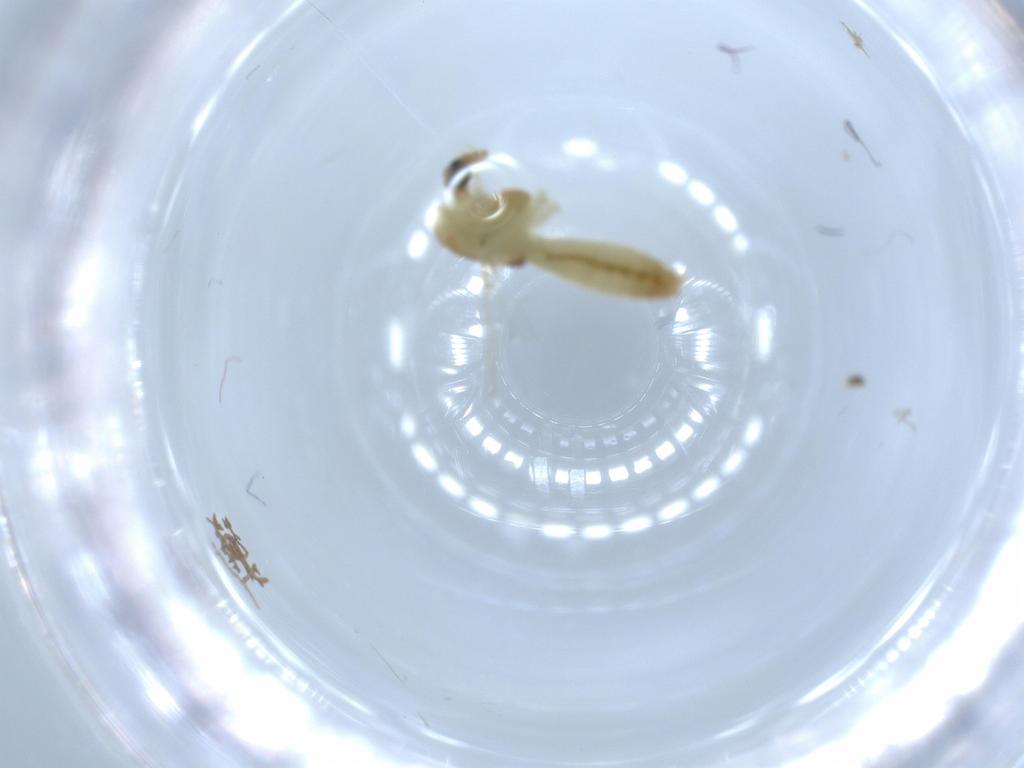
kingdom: Animalia
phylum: Arthropoda
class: Insecta
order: Diptera
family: Chironomidae
